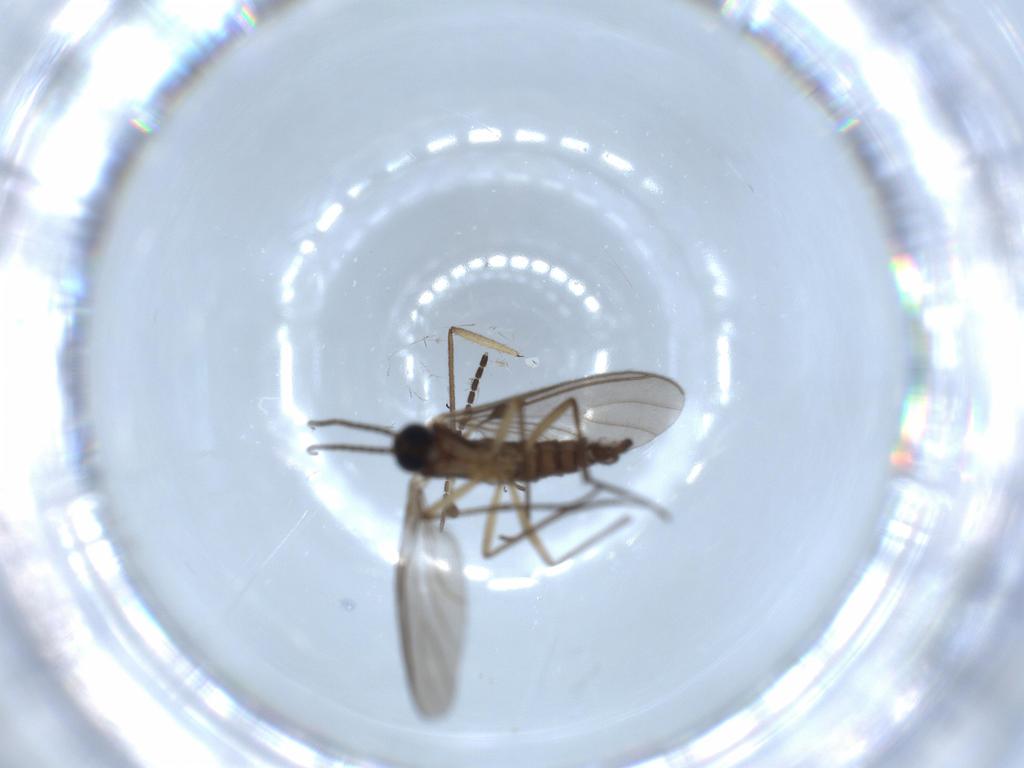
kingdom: Animalia
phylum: Arthropoda
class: Insecta
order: Diptera
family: Sciaridae
